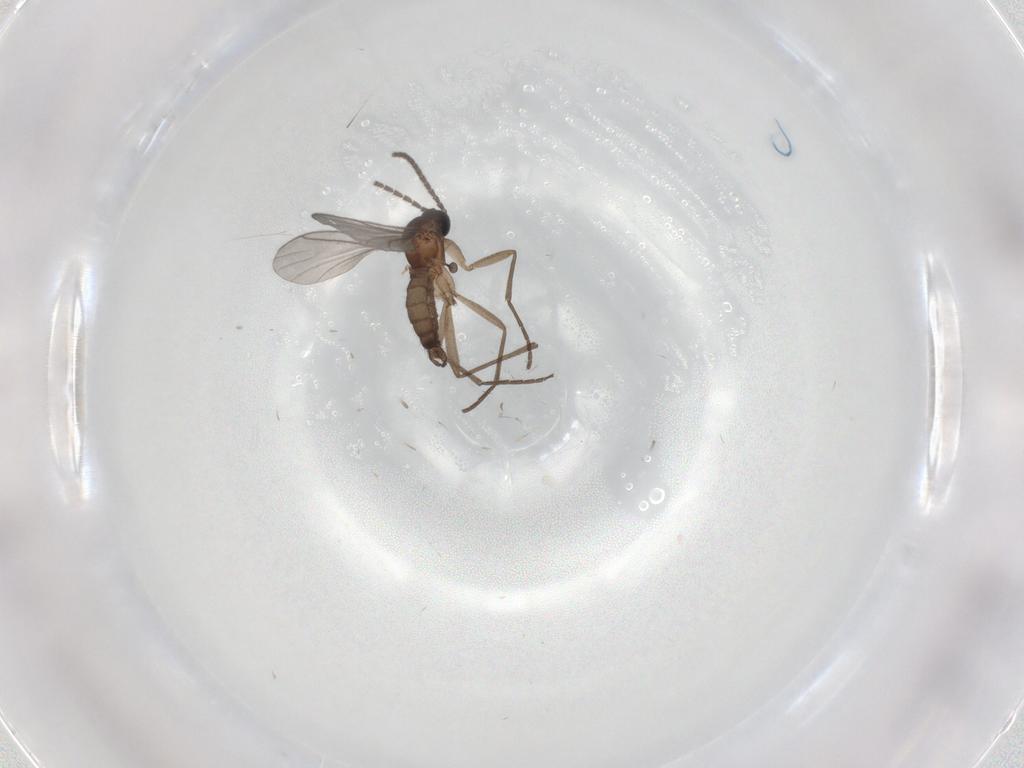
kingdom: Animalia
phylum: Arthropoda
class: Insecta
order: Diptera
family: Sciaridae
